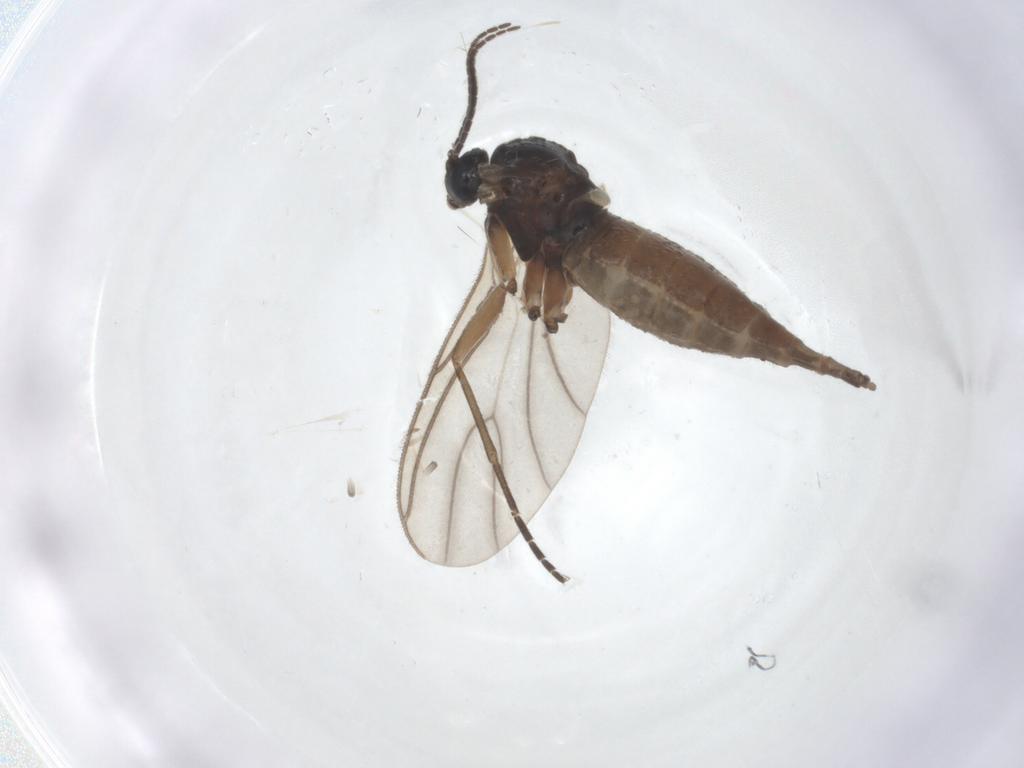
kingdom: Animalia
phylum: Arthropoda
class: Insecta
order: Diptera
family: Sciaridae
